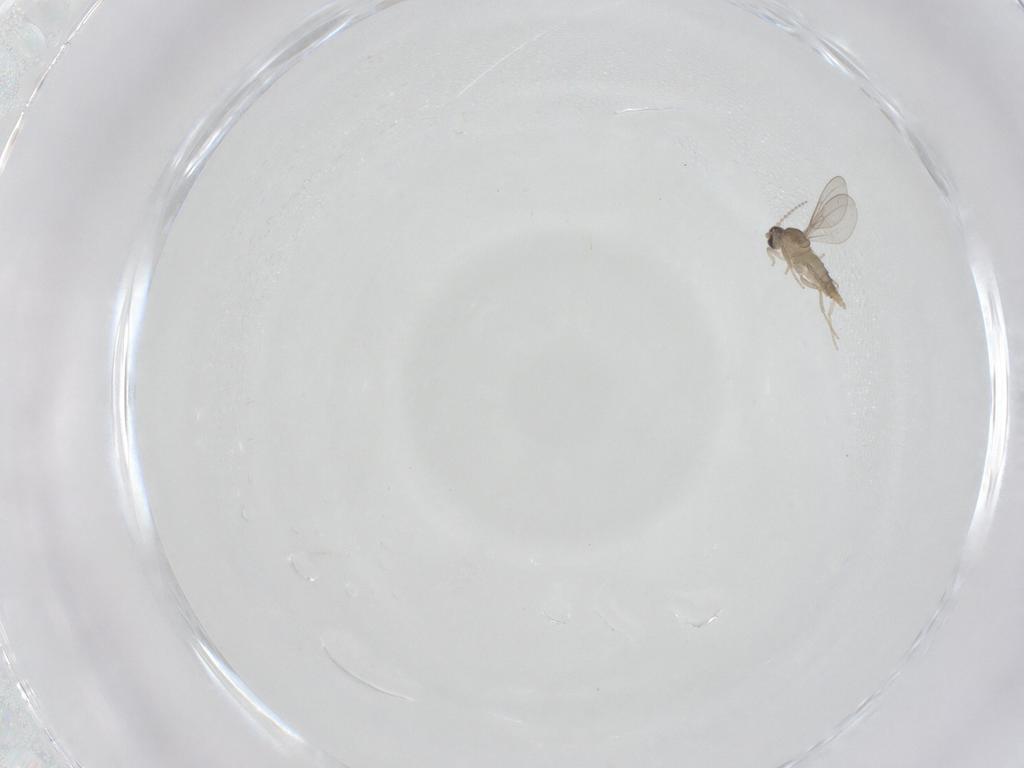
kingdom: Animalia
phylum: Arthropoda
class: Insecta
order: Diptera
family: Cecidomyiidae
